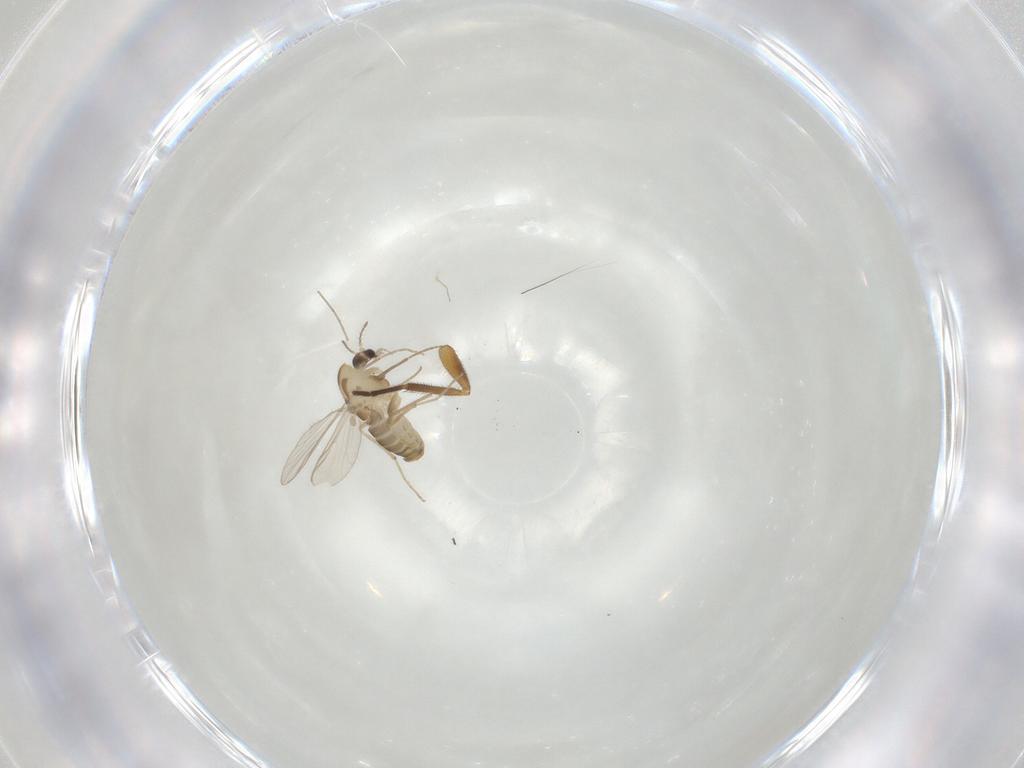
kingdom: Animalia
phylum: Arthropoda
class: Insecta
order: Diptera
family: Chironomidae
